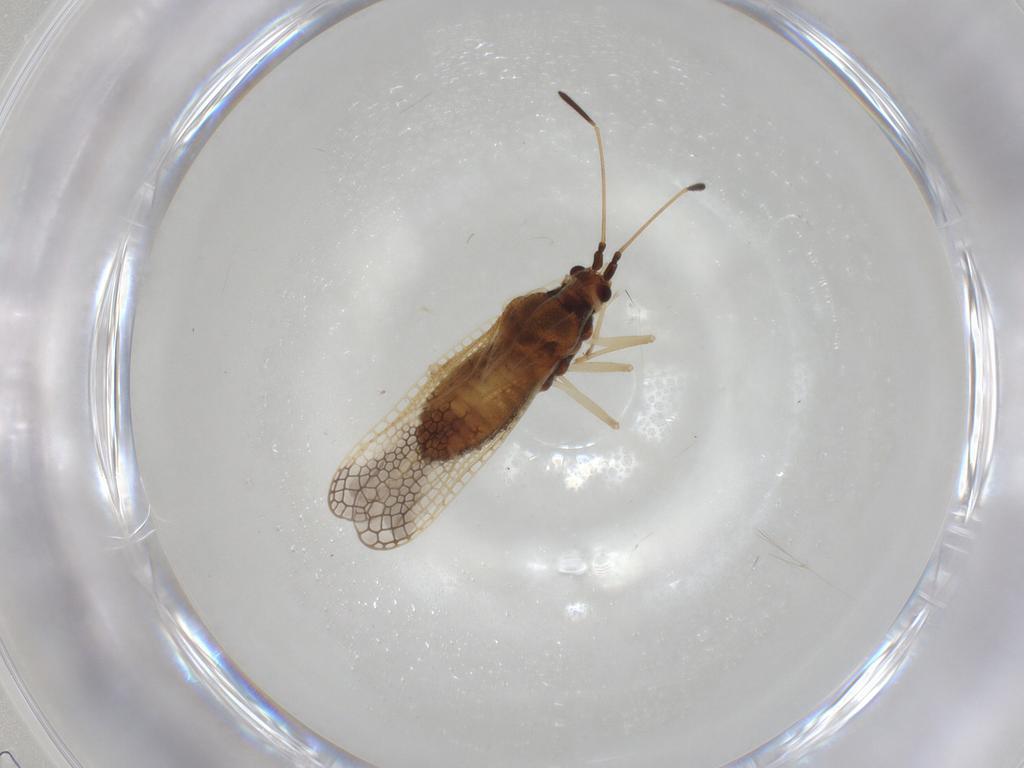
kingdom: Animalia
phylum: Arthropoda
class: Insecta
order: Hemiptera
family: Tingidae
